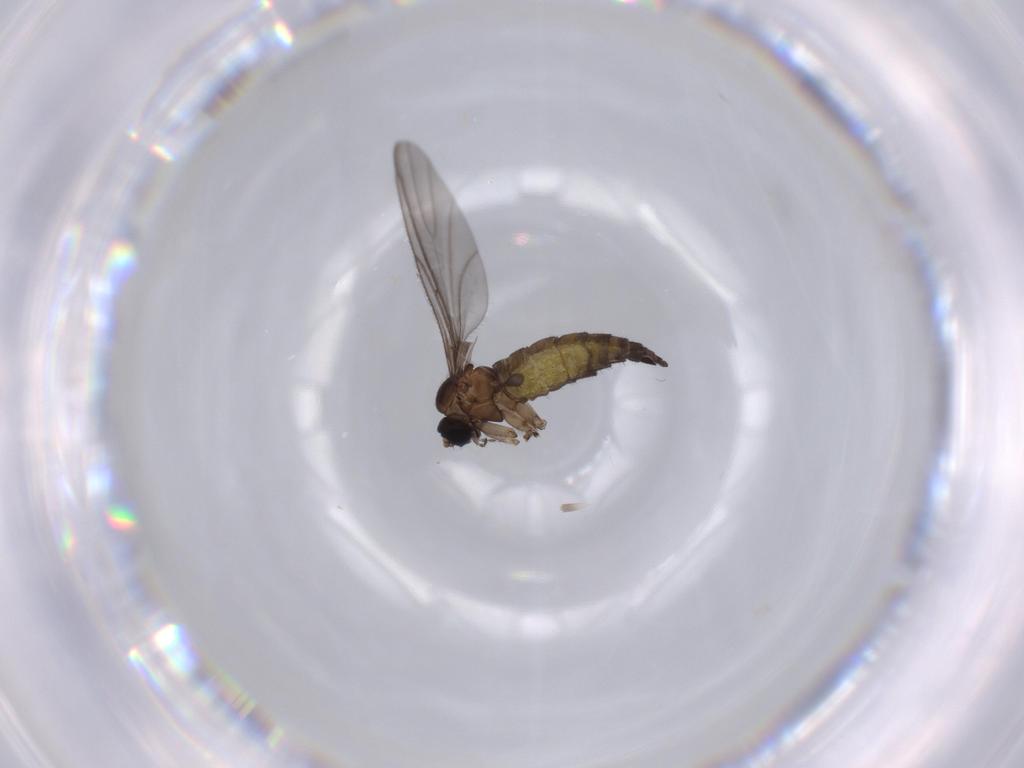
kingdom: Animalia
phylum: Arthropoda
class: Insecta
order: Diptera
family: Sciaridae
